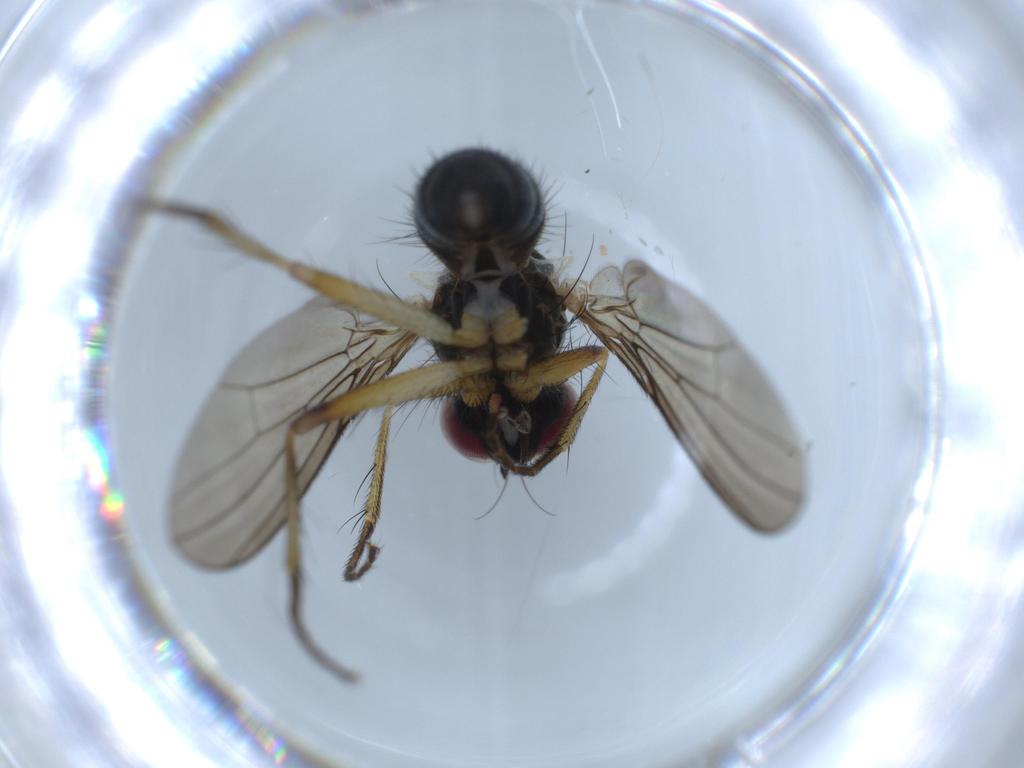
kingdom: Animalia
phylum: Arthropoda
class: Insecta
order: Diptera
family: Muscidae
